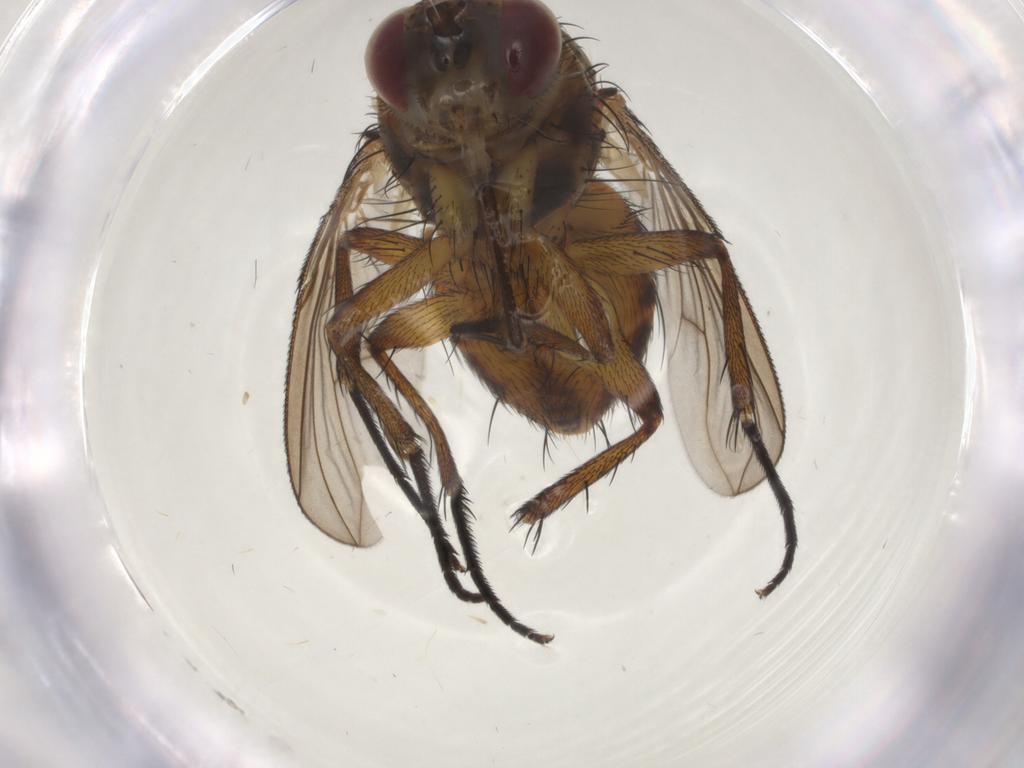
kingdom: Animalia
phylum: Arthropoda
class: Insecta
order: Diptera
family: Tachinidae
